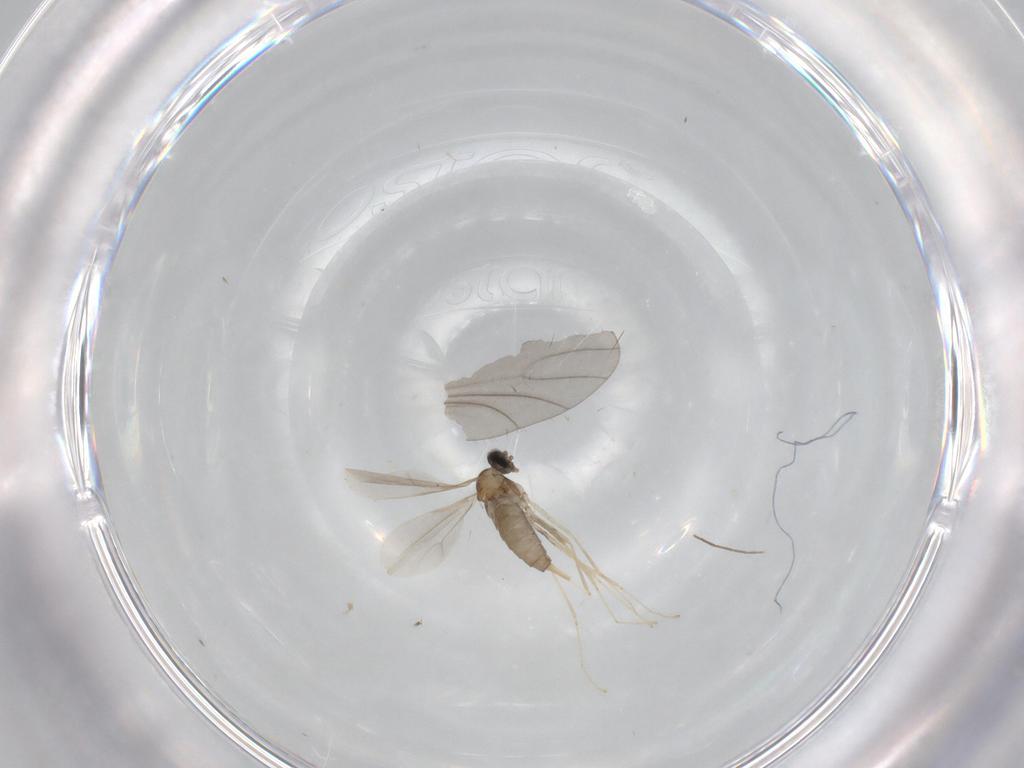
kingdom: Animalia
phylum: Arthropoda
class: Insecta
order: Diptera
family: Cecidomyiidae
